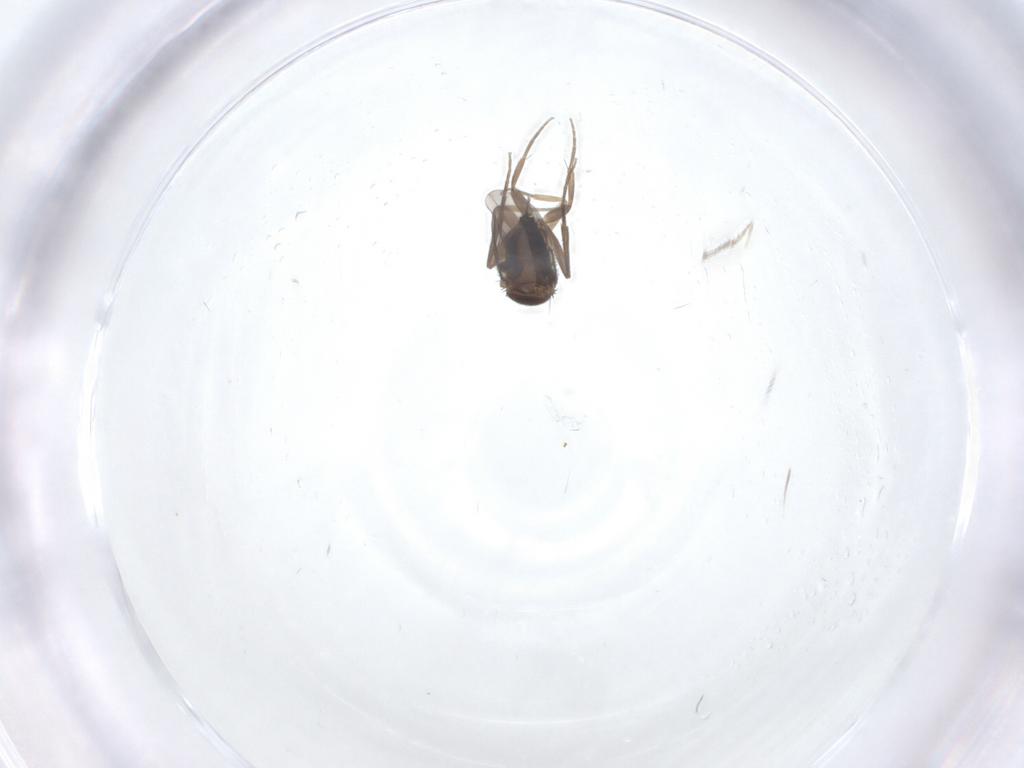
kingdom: Animalia
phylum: Arthropoda
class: Insecta
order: Diptera
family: Phoridae
